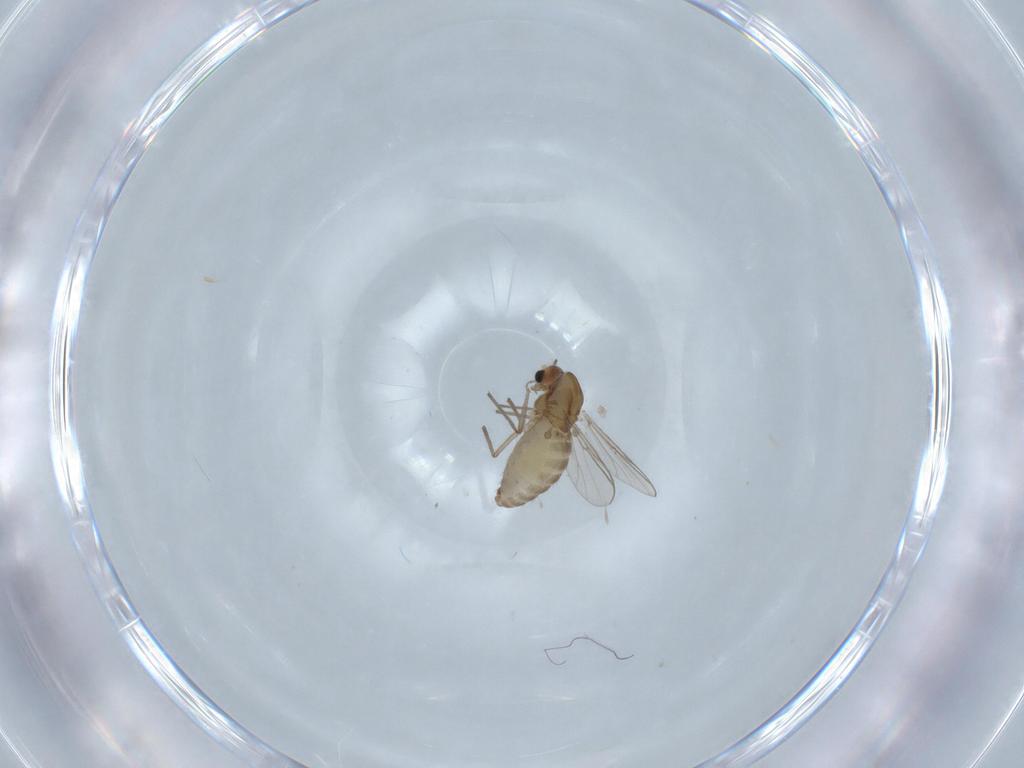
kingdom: Animalia
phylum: Arthropoda
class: Insecta
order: Diptera
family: Chironomidae
